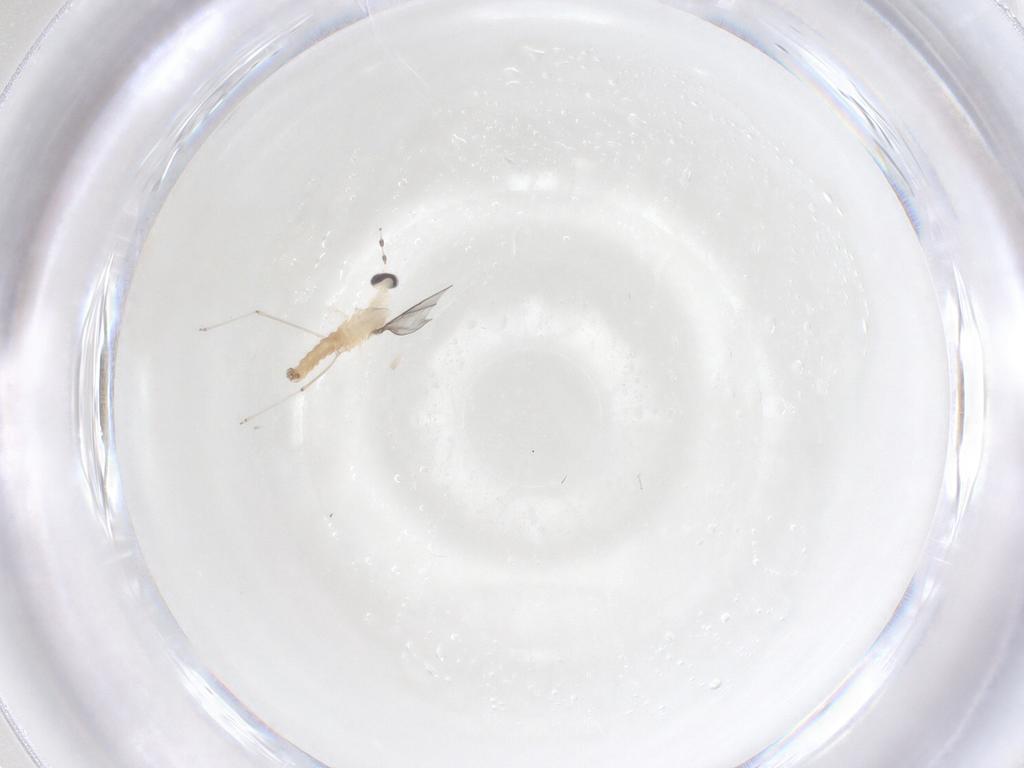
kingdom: Animalia
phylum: Arthropoda
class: Insecta
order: Diptera
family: Cecidomyiidae
